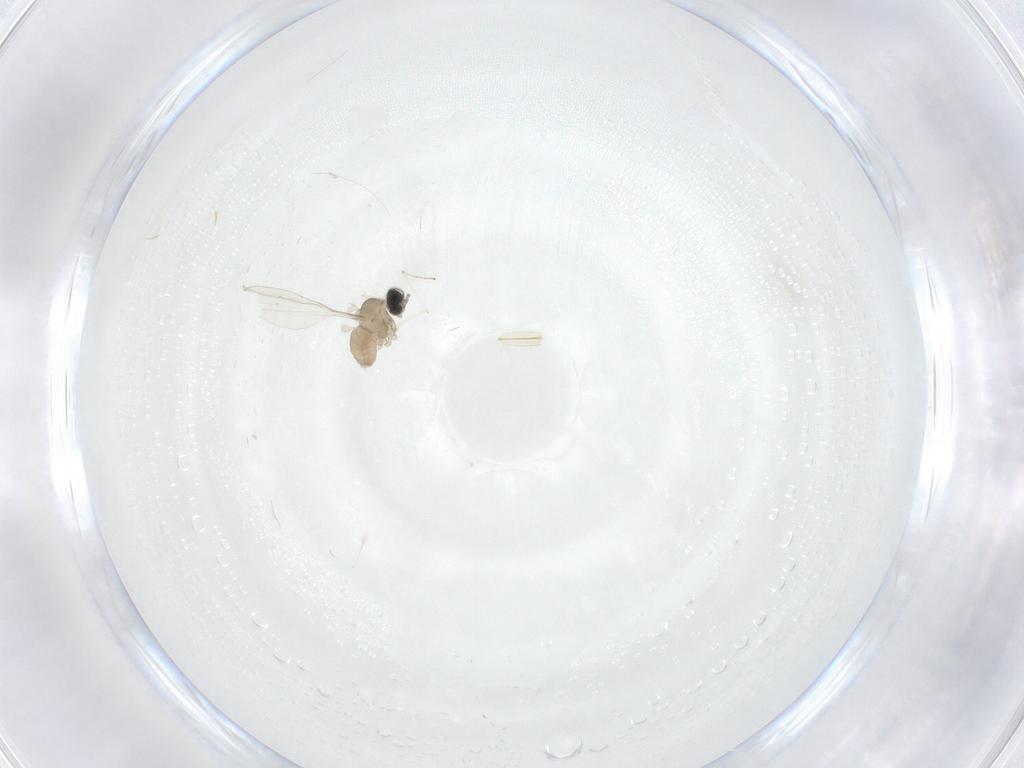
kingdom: Animalia
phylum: Arthropoda
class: Insecta
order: Diptera
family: Cecidomyiidae
